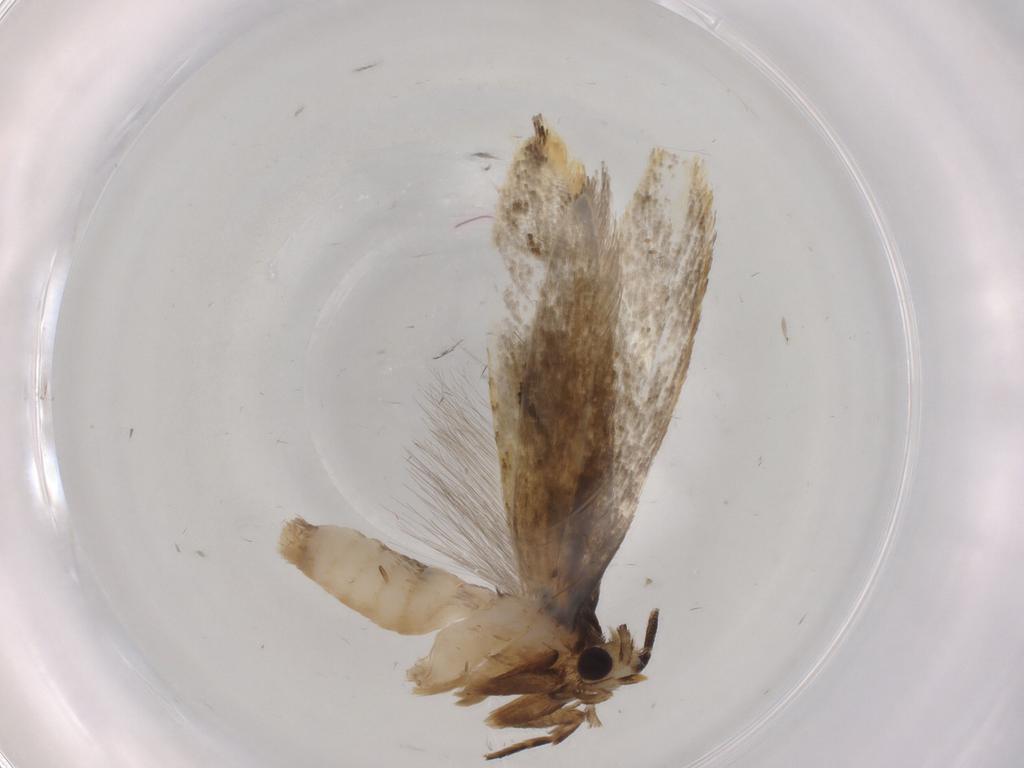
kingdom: Animalia
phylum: Arthropoda
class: Insecta
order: Lepidoptera
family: Tineidae
